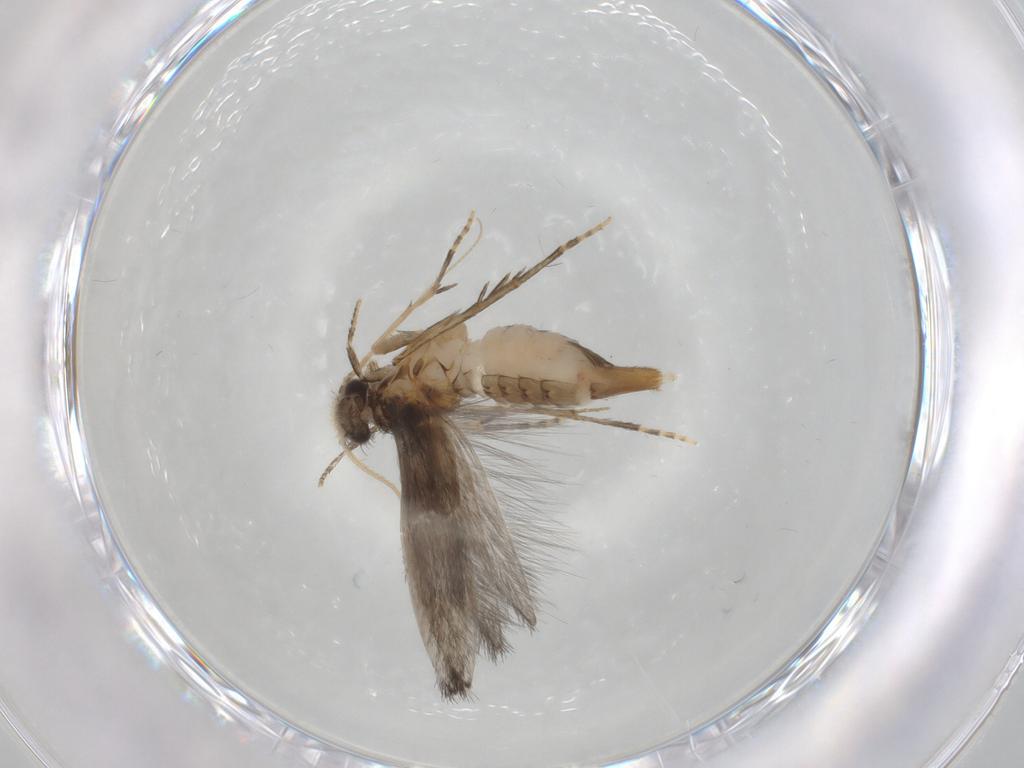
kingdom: Animalia
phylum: Arthropoda
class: Insecta
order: Trichoptera
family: Hydroptilidae
